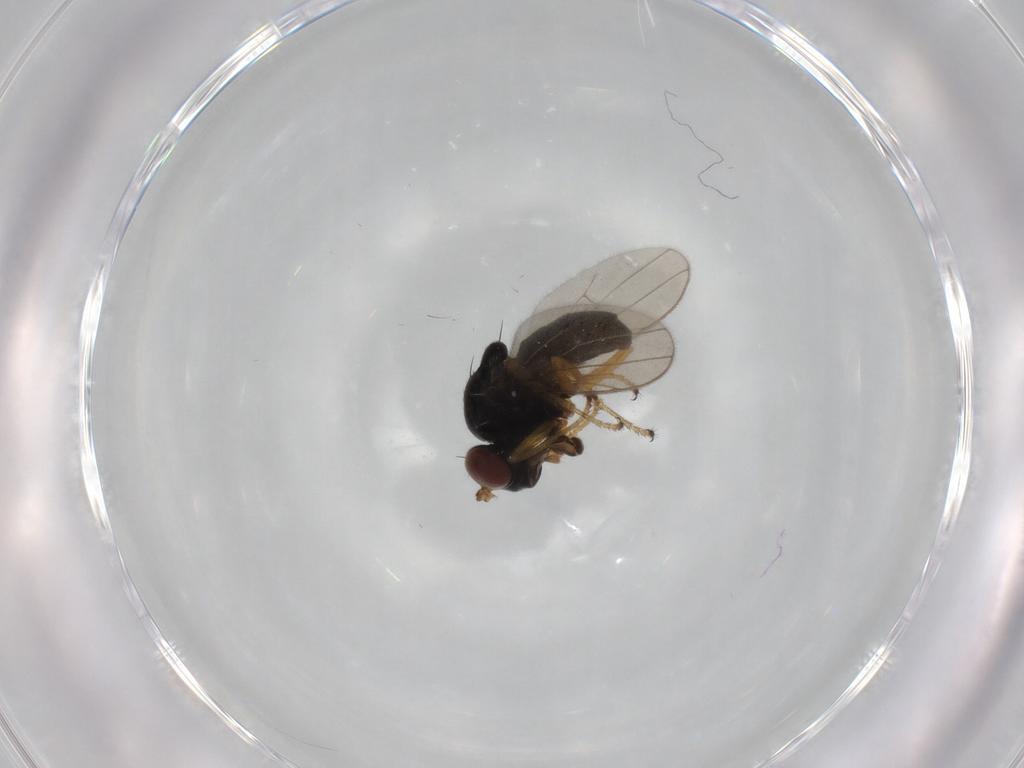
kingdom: Animalia
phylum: Arthropoda
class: Insecta
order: Diptera
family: Ephydridae
